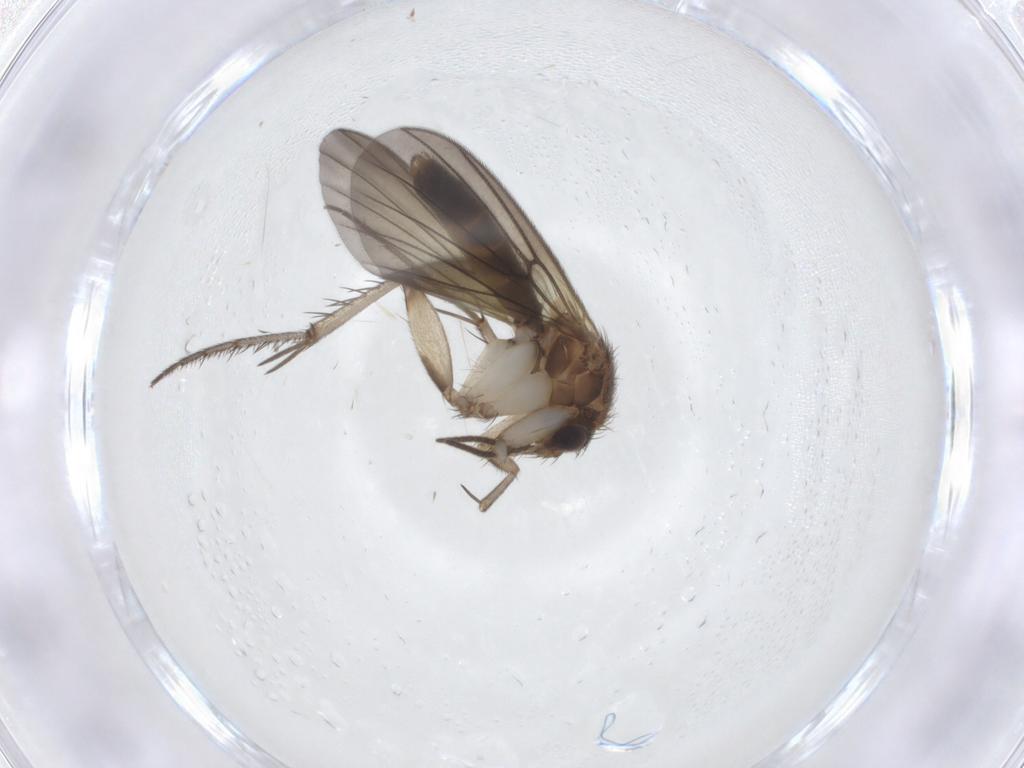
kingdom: Animalia
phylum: Arthropoda
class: Insecta
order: Diptera
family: Mycetophilidae
